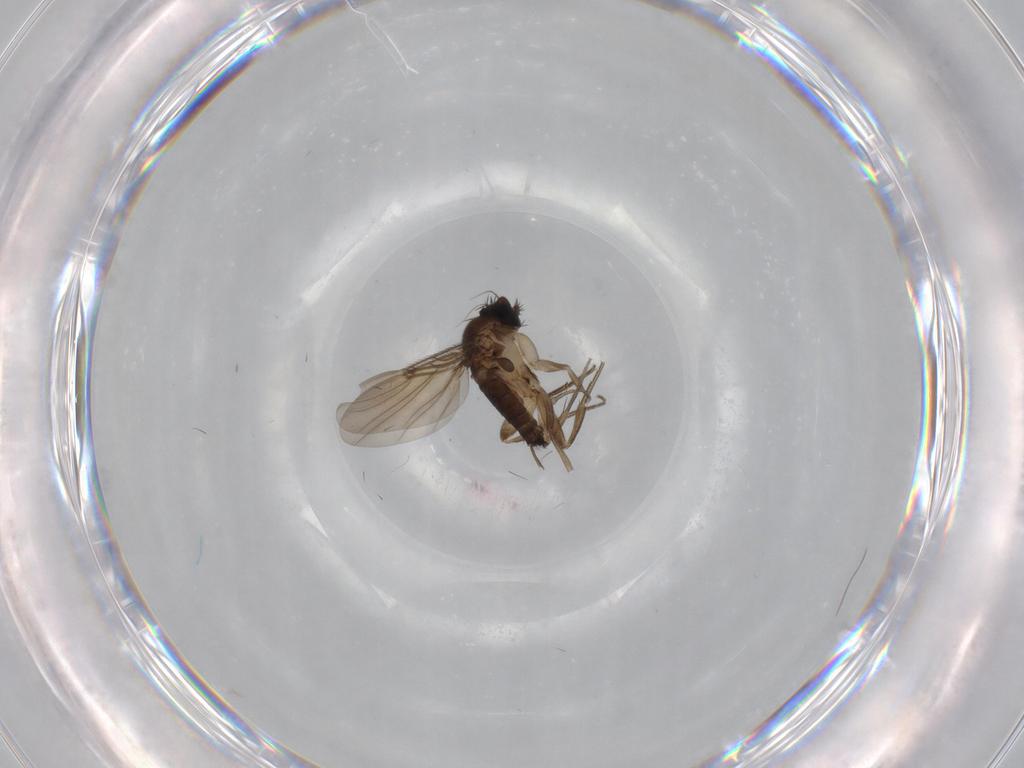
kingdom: Animalia
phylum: Arthropoda
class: Insecta
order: Diptera
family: Phoridae
